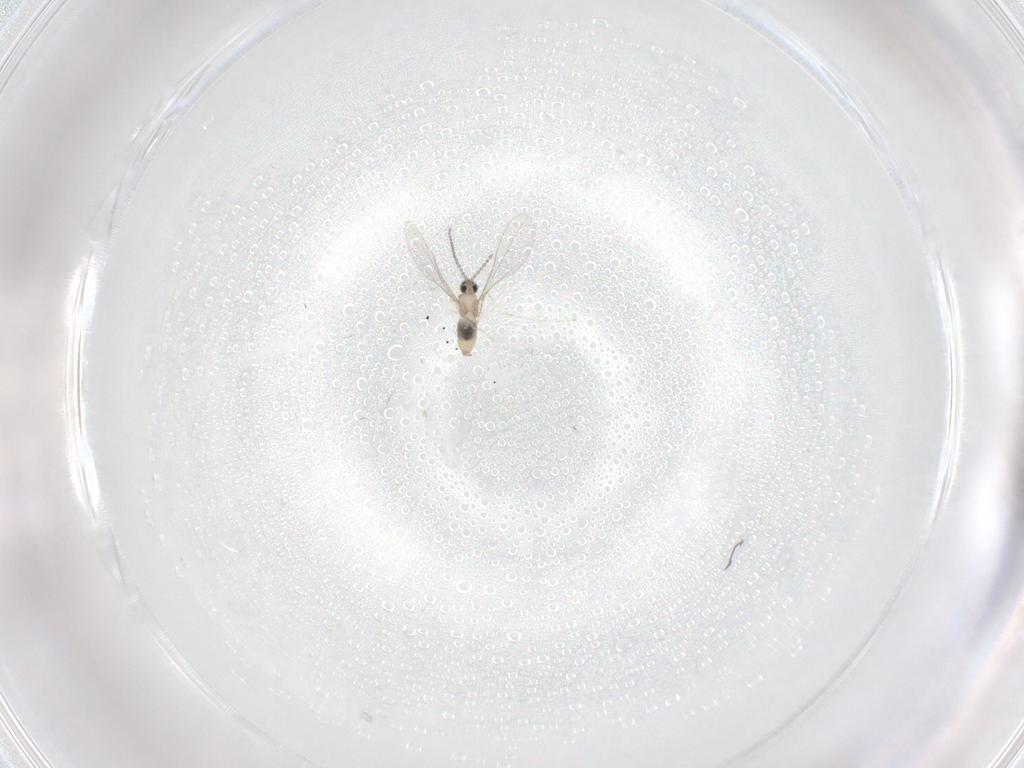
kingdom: Animalia
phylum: Arthropoda
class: Insecta
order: Diptera
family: Cecidomyiidae
